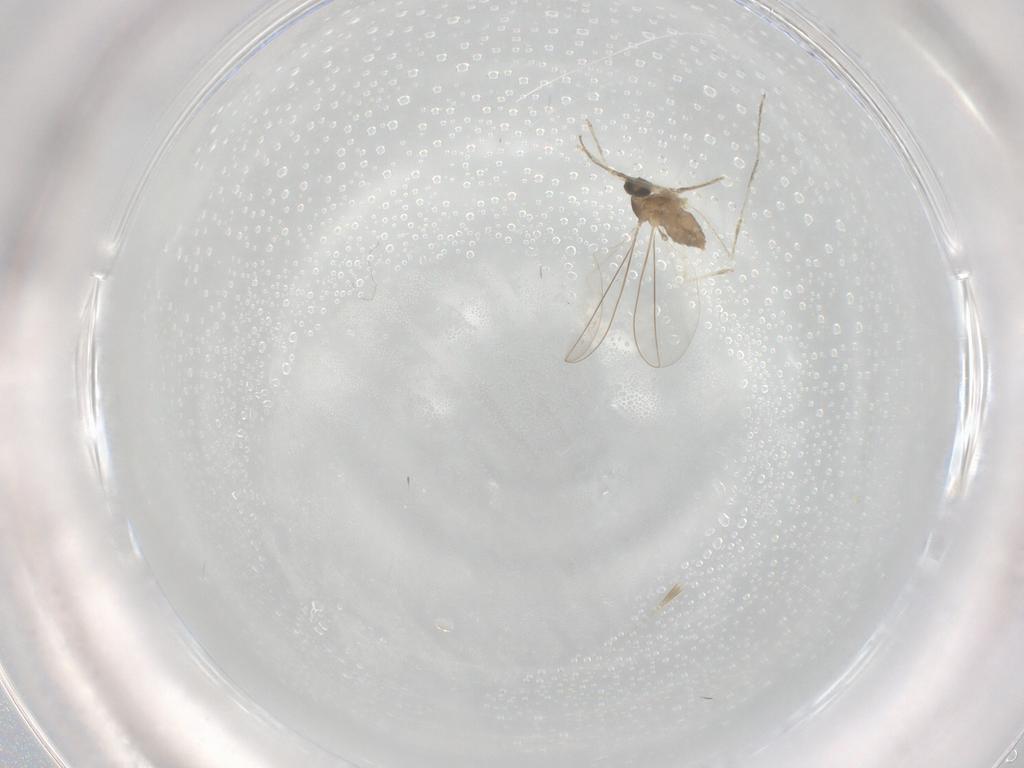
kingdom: Animalia
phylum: Arthropoda
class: Insecta
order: Diptera
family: Cecidomyiidae
